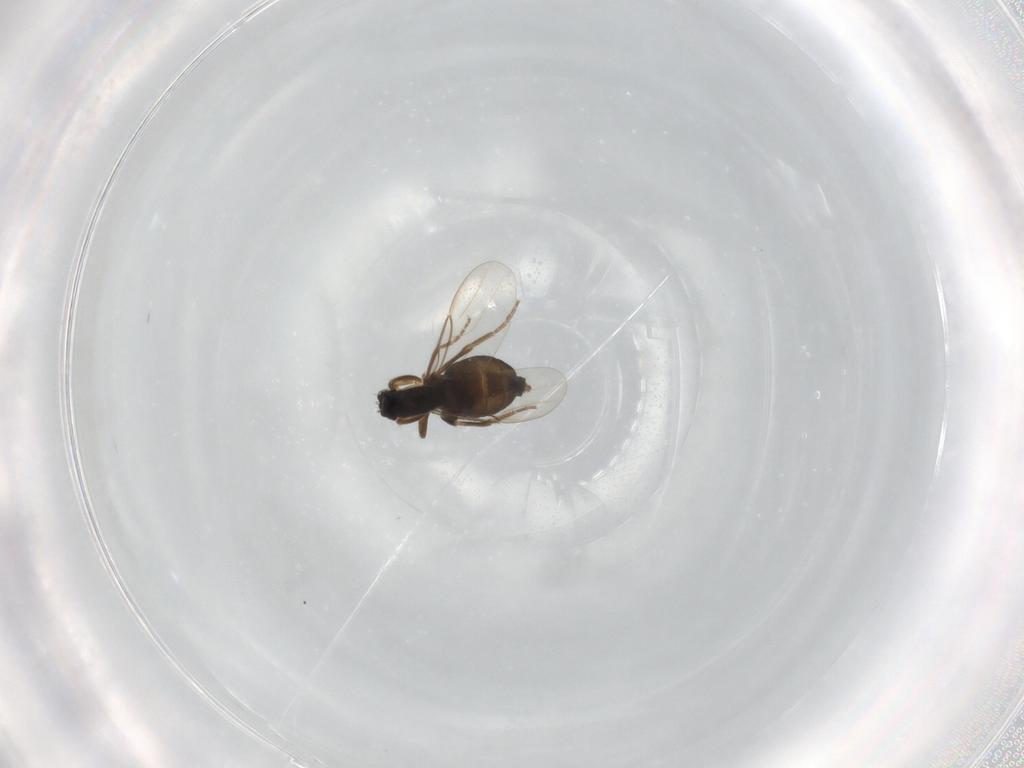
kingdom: Animalia
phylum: Arthropoda
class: Insecta
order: Diptera
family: Phoridae
